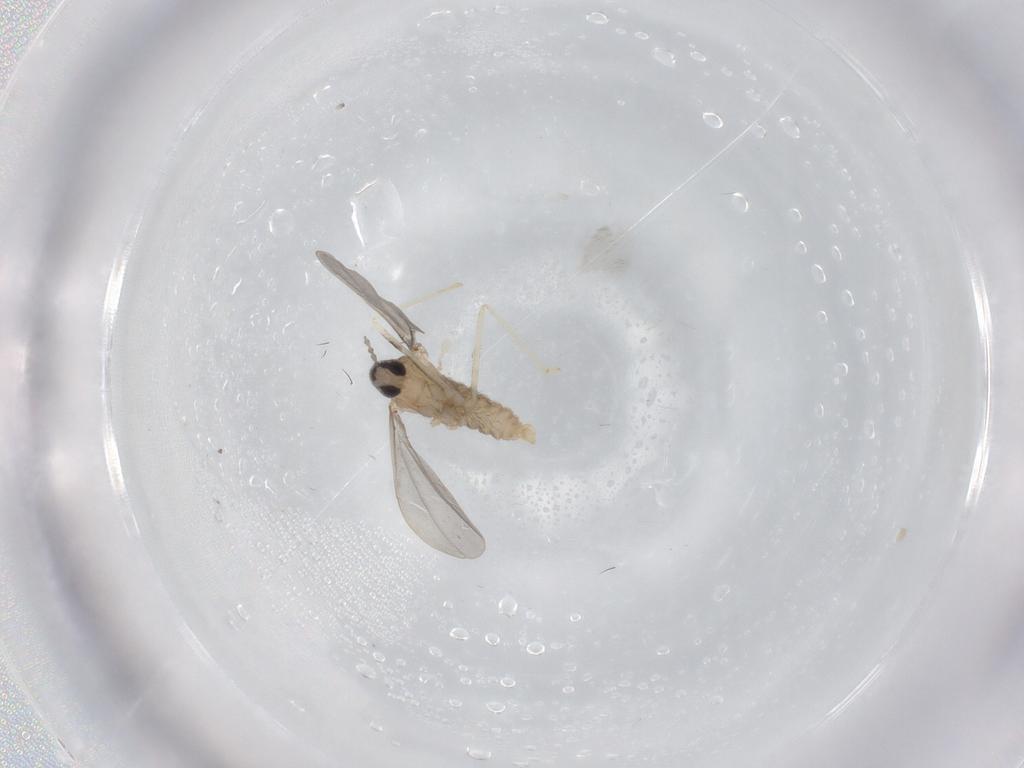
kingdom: Animalia
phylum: Arthropoda
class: Insecta
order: Diptera
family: Cecidomyiidae
